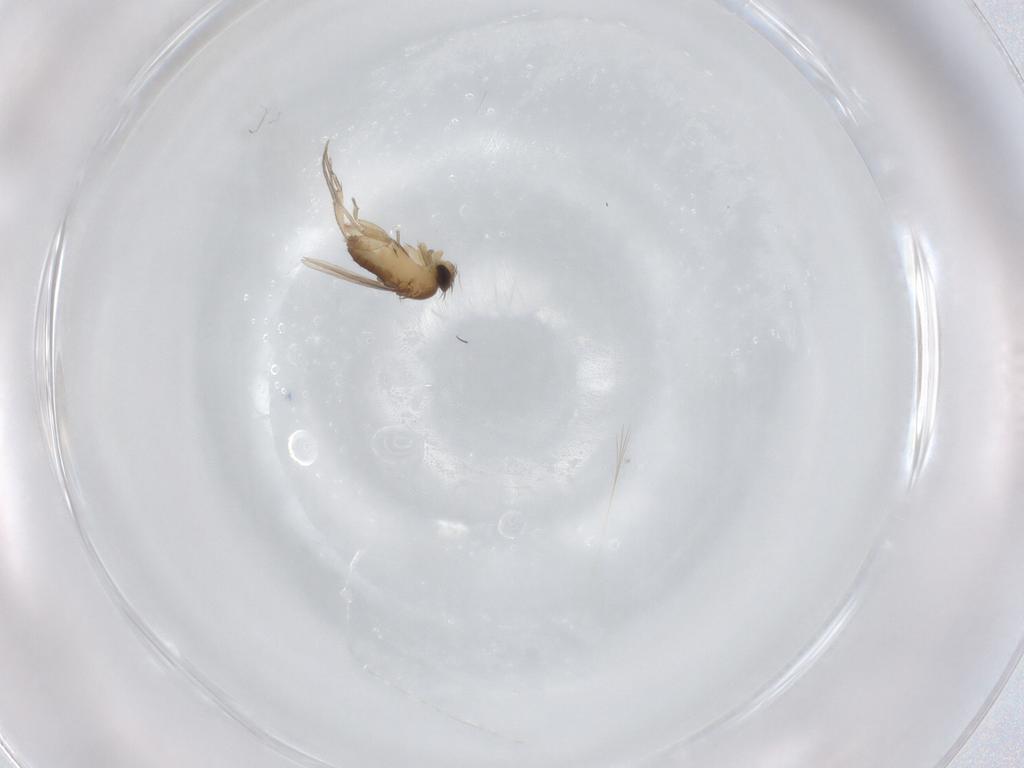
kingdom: Animalia
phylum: Arthropoda
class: Insecta
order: Diptera
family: Phoridae
